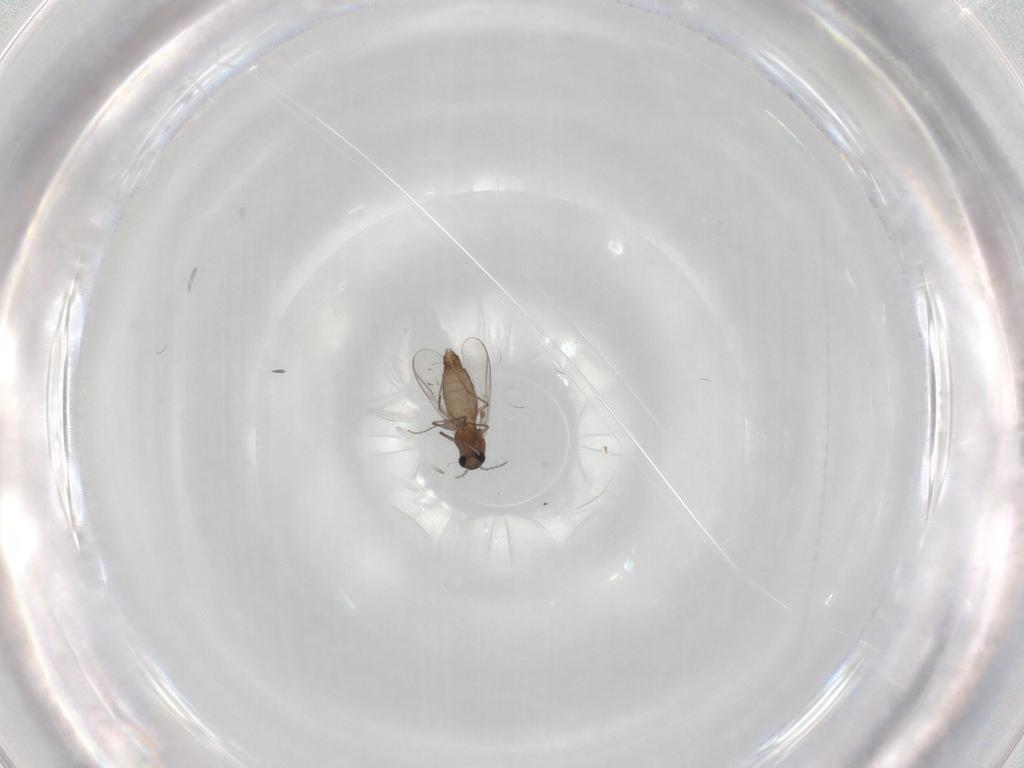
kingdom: Animalia
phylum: Arthropoda
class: Insecta
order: Diptera
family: Chironomidae
